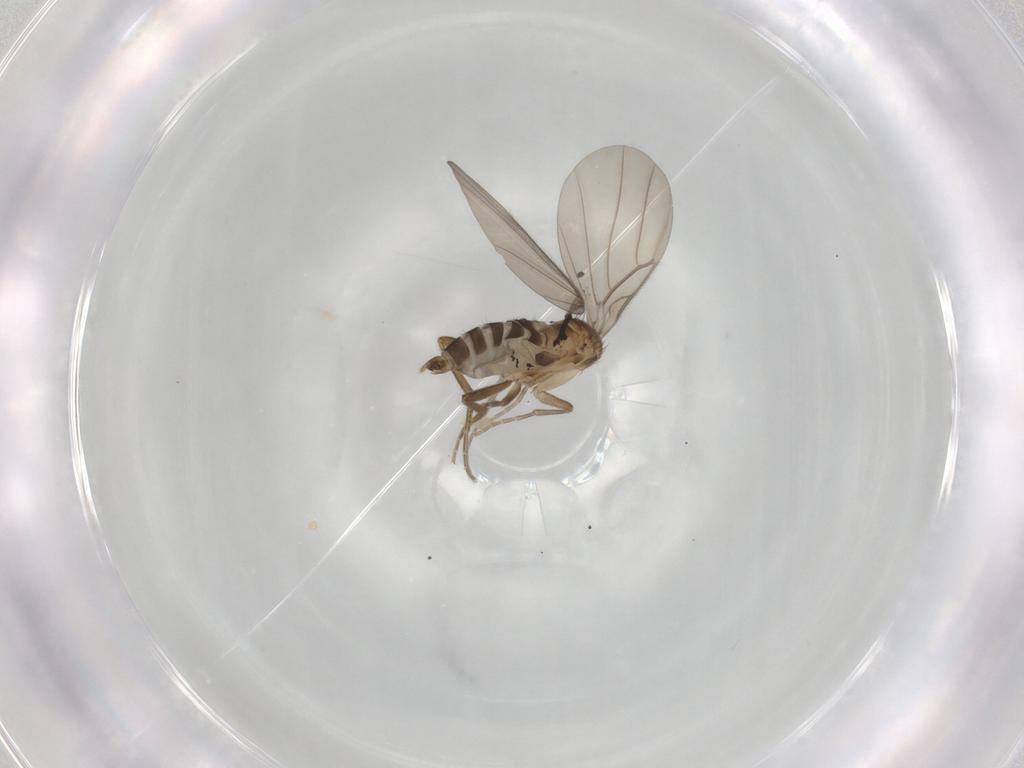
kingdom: Animalia
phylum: Arthropoda
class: Insecta
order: Diptera
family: Phoridae
